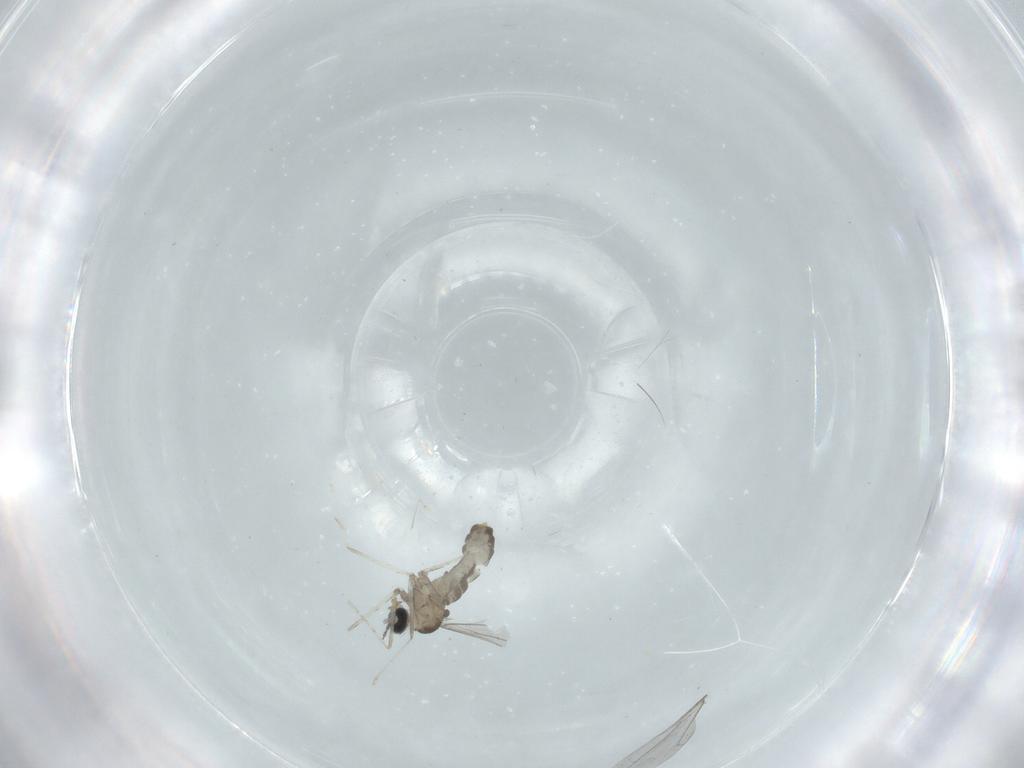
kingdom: Animalia
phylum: Arthropoda
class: Insecta
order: Diptera
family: Cecidomyiidae
